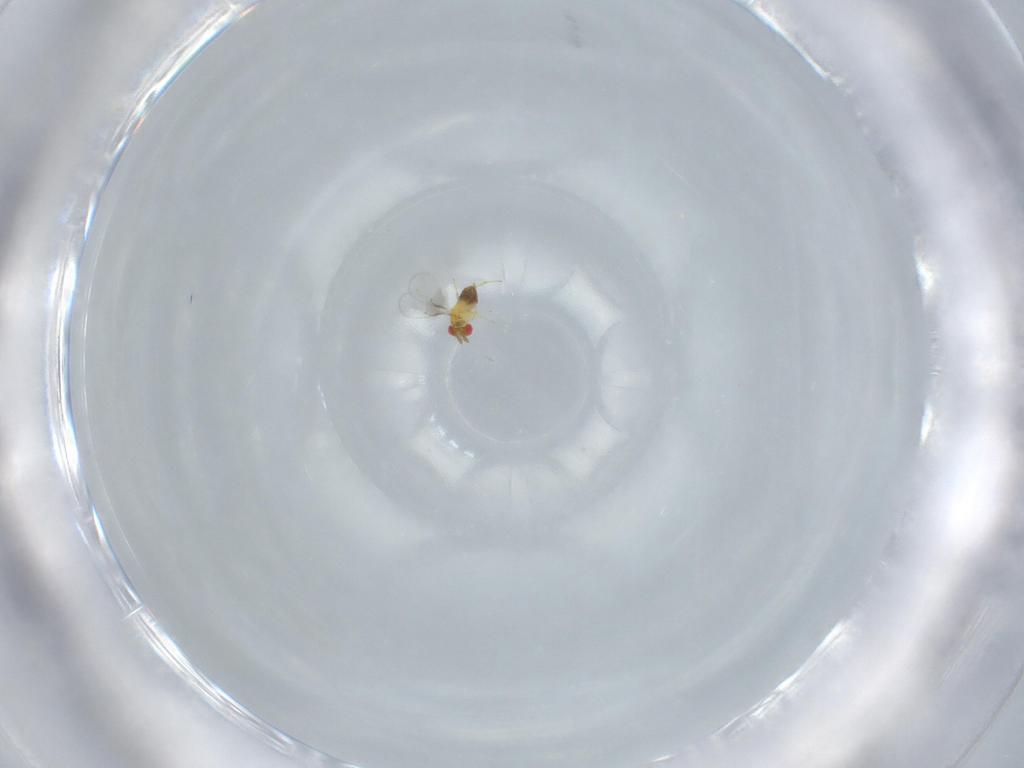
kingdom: Animalia
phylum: Arthropoda
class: Insecta
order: Hymenoptera
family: Trichogrammatidae
